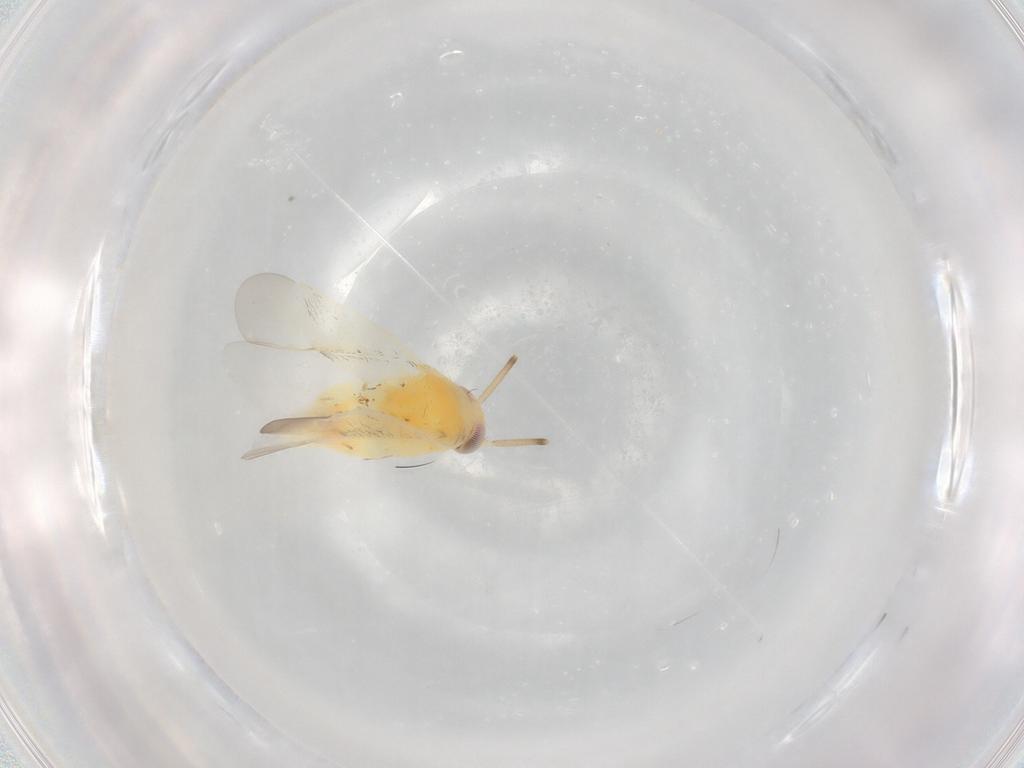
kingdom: Animalia
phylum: Arthropoda
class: Insecta
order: Hemiptera
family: Miridae
